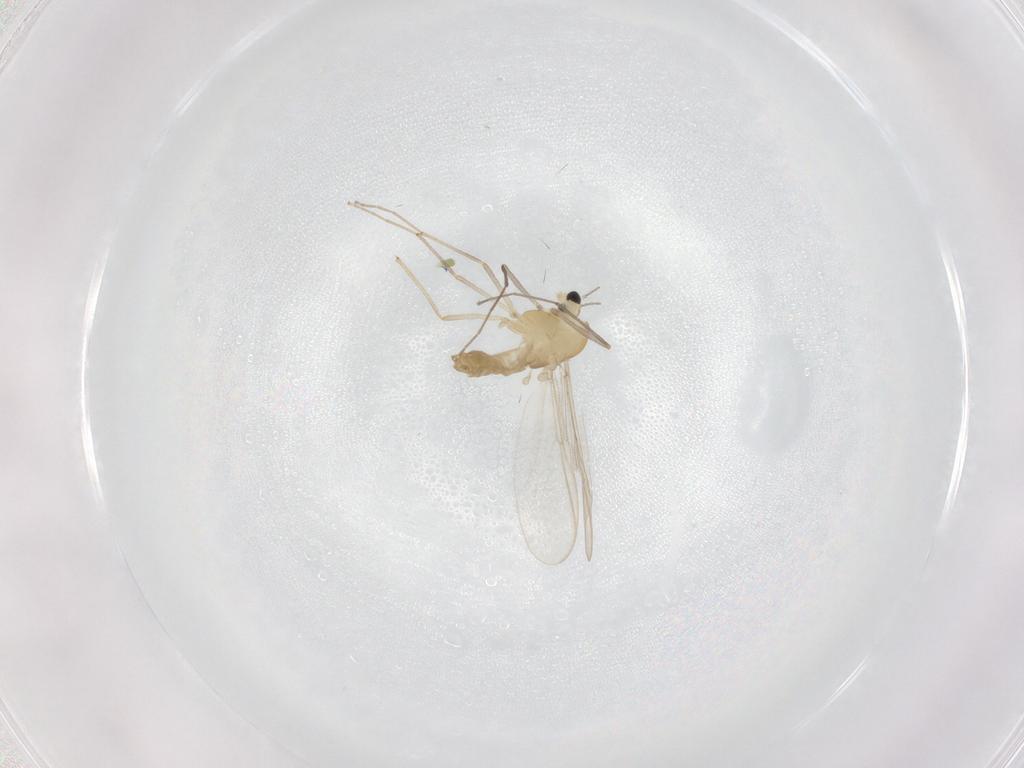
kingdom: Animalia
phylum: Arthropoda
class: Insecta
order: Diptera
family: Chironomidae
